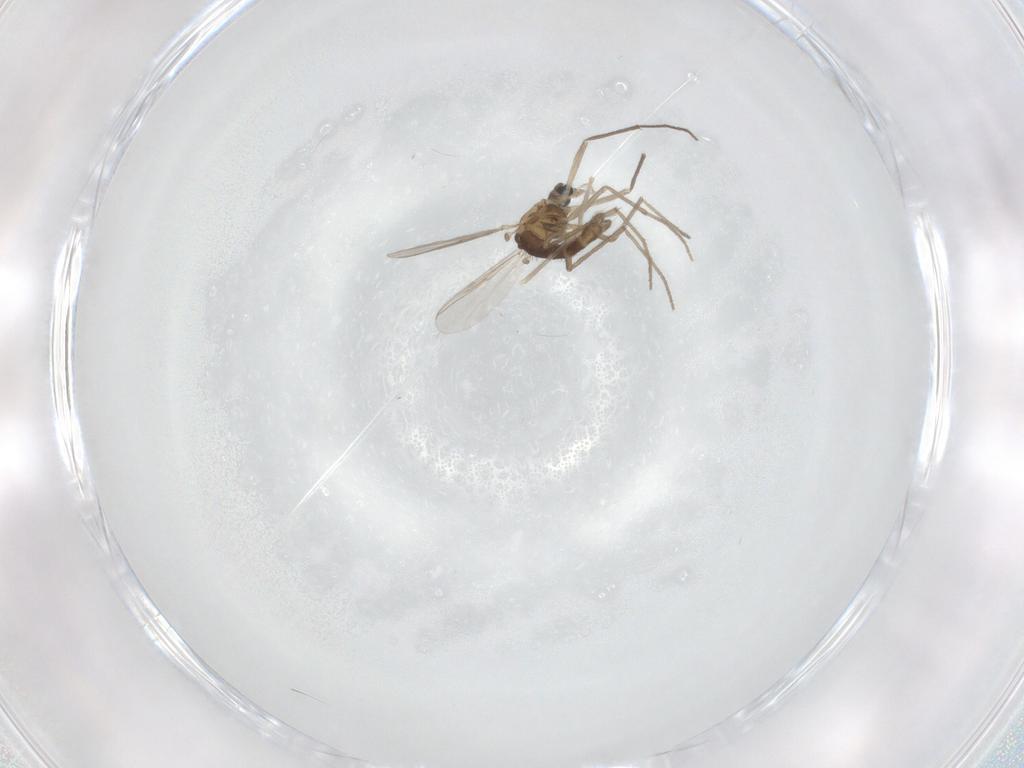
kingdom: Animalia
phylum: Arthropoda
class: Insecta
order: Diptera
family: Chironomidae
